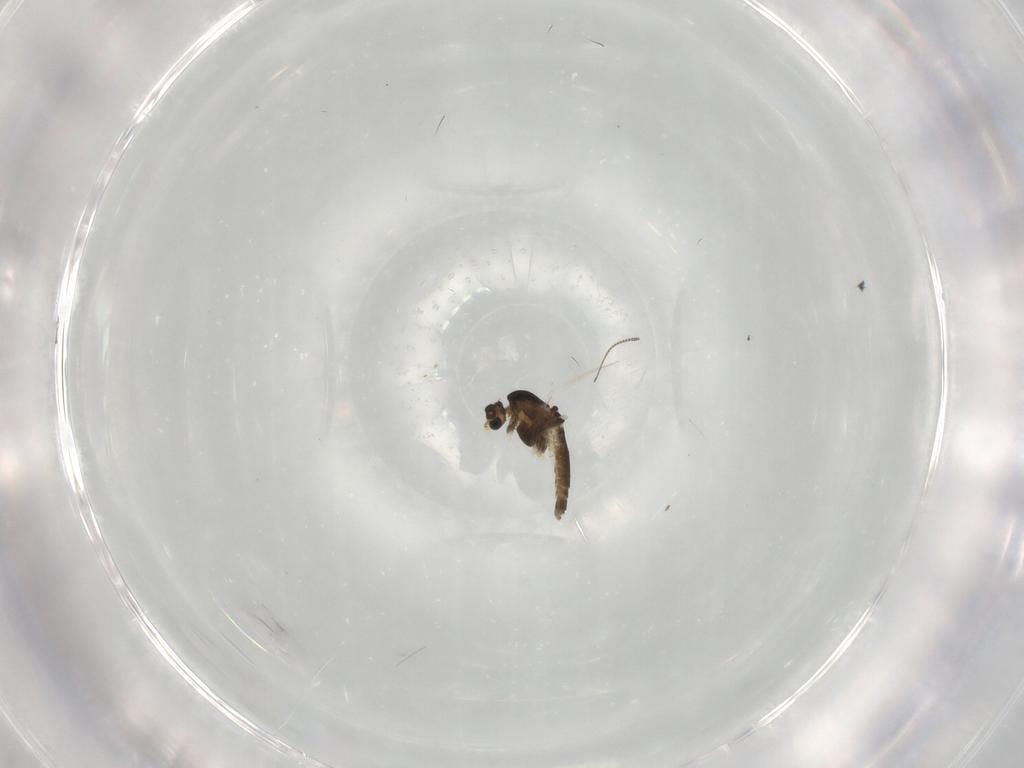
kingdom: Animalia
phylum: Arthropoda
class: Insecta
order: Diptera
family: Chironomidae
